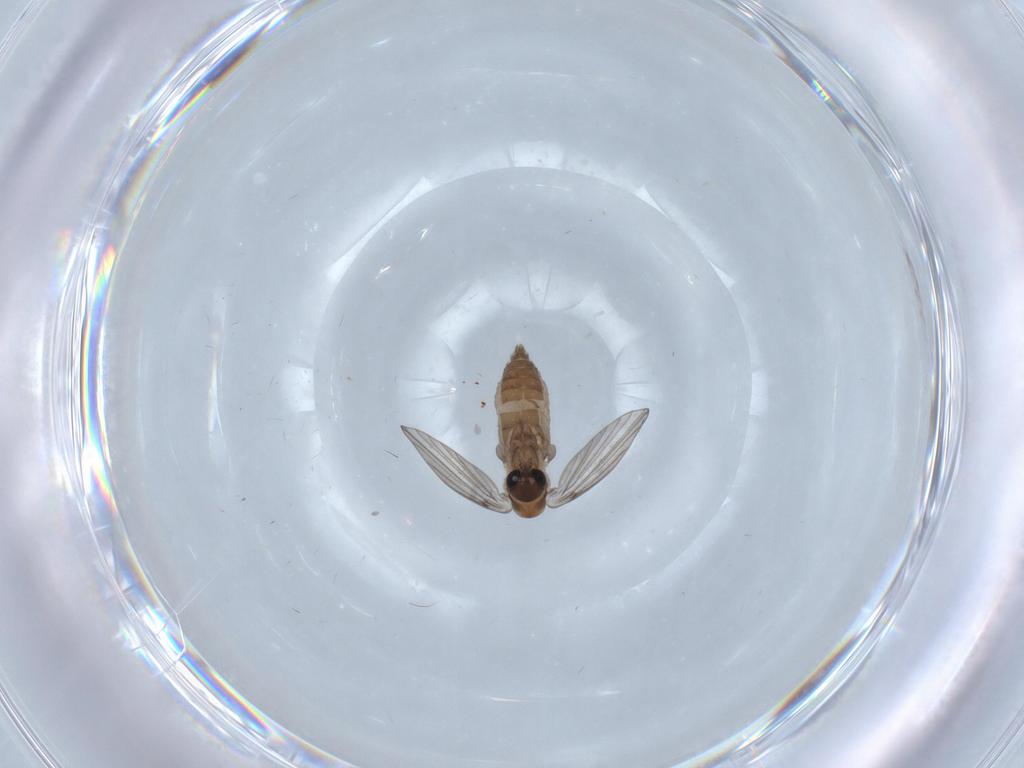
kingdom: Animalia
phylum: Arthropoda
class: Insecta
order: Diptera
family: Psychodidae
